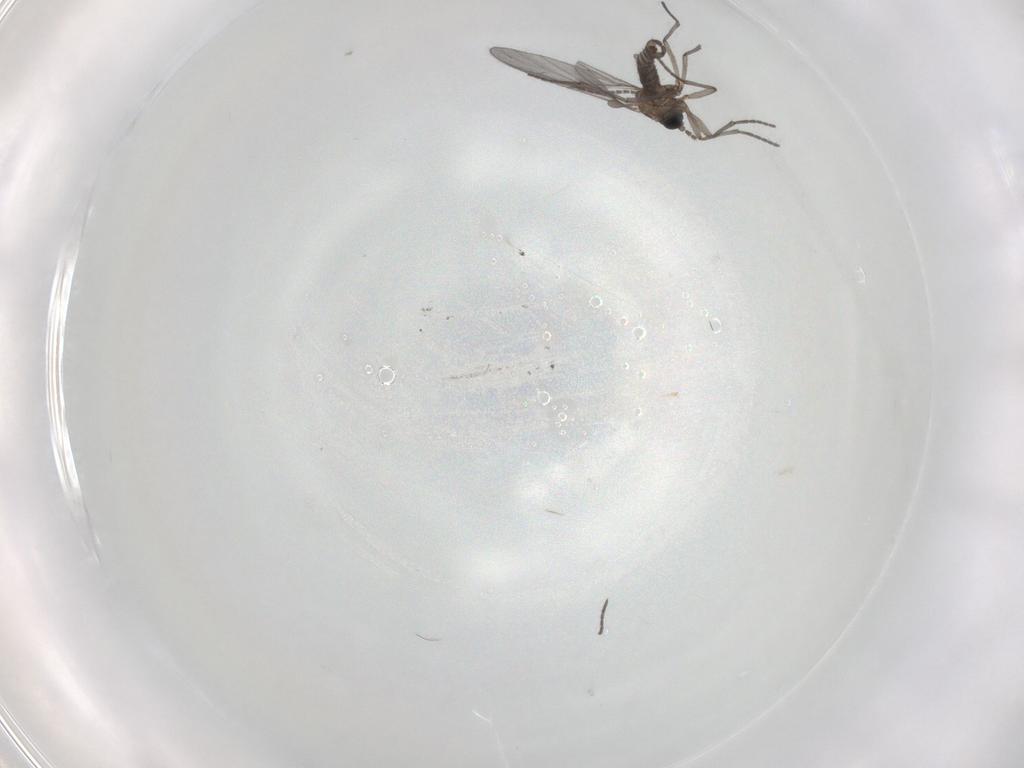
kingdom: Animalia
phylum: Arthropoda
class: Insecta
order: Diptera
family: Sciaridae
